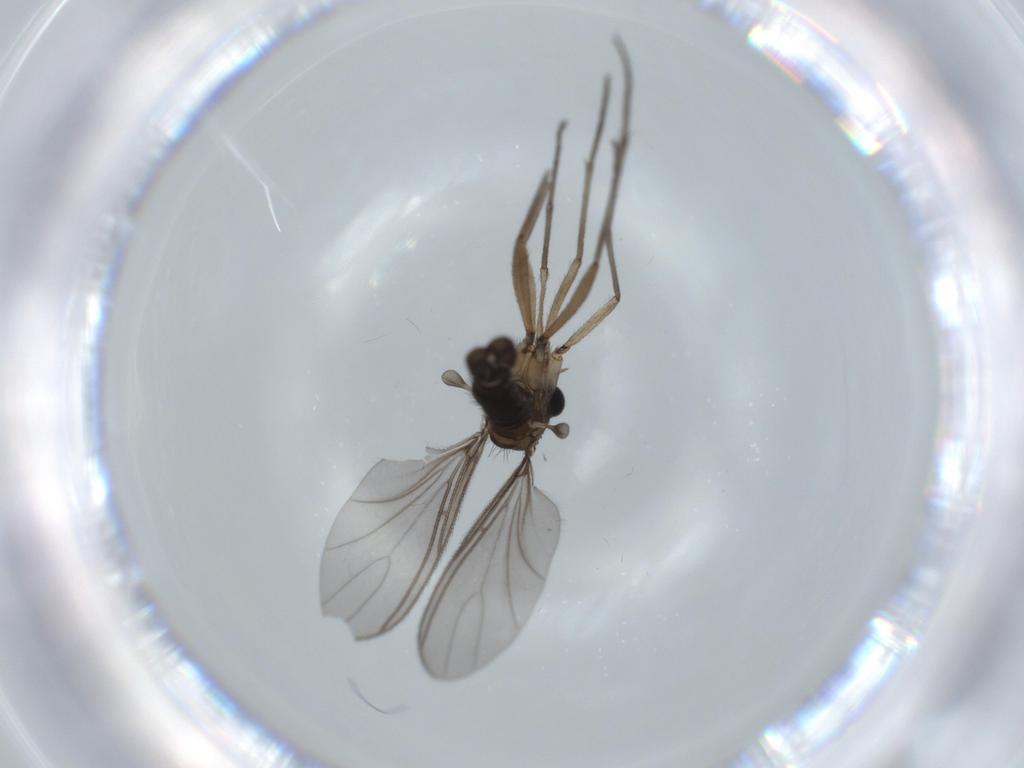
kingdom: Animalia
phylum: Arthropoda
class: Insecta
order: Diptera
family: Sciaridae
